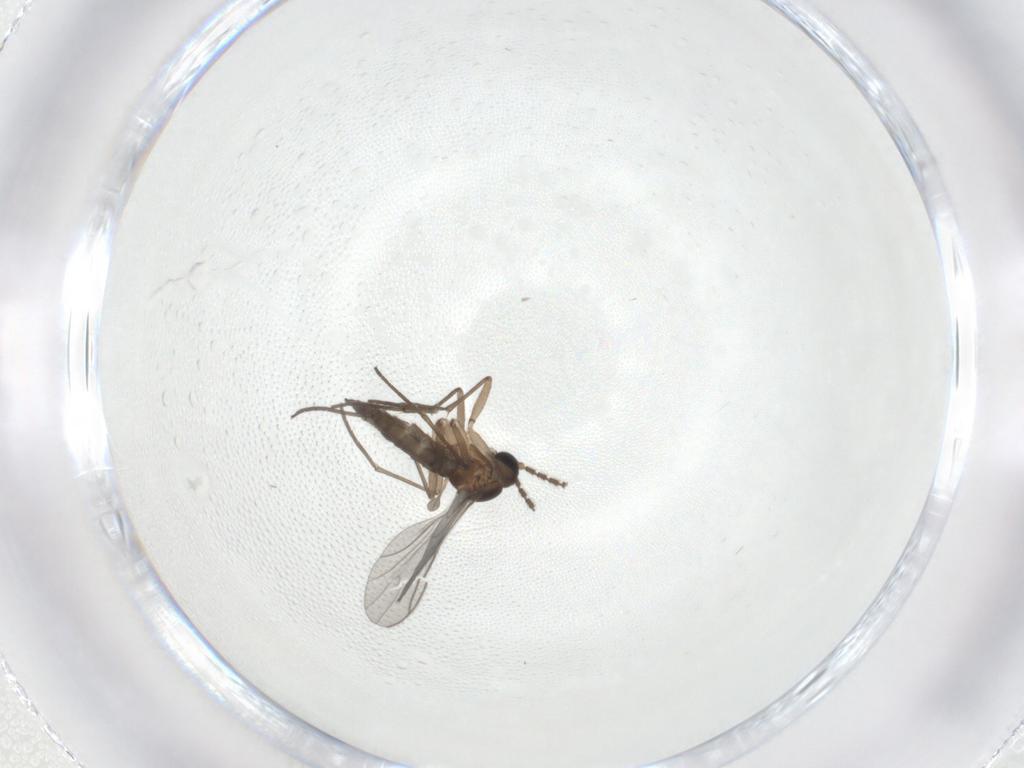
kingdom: Animalia
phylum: Arthropoda
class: Insecta
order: Diptera
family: Sciaridae
